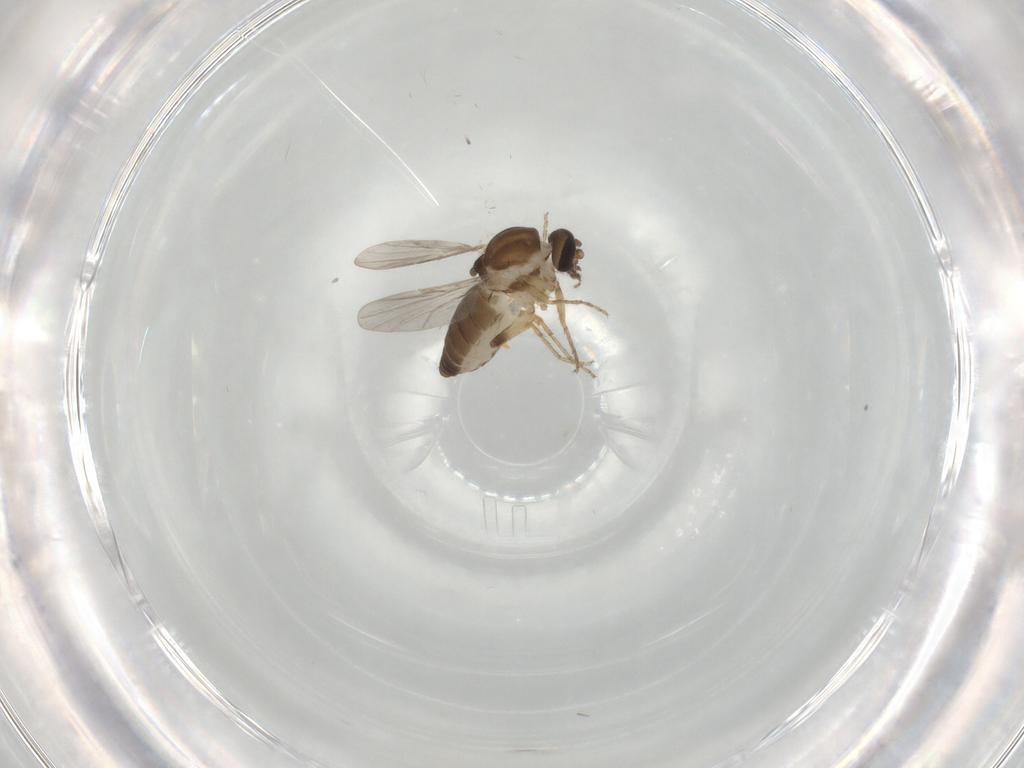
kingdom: Animalia
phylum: Arthropoda
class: Insecta
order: Diptera
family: Ceratopogonidae
